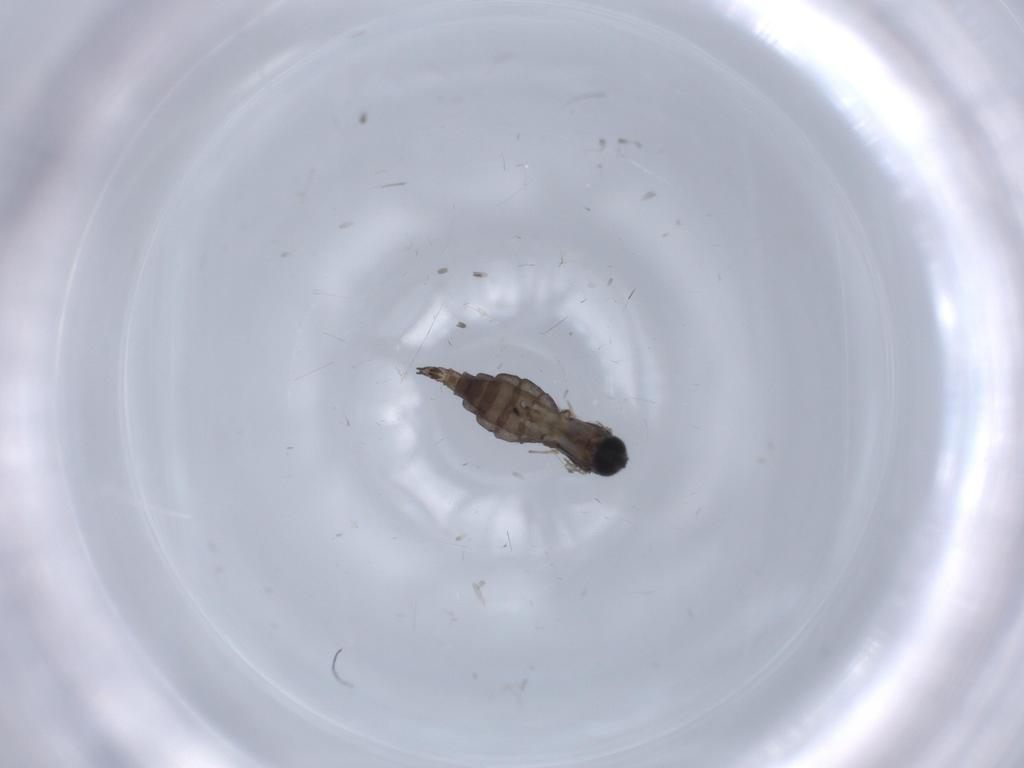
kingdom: Animalia
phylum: Arthropoda
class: Insecta
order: Diptera
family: Sciaridae
